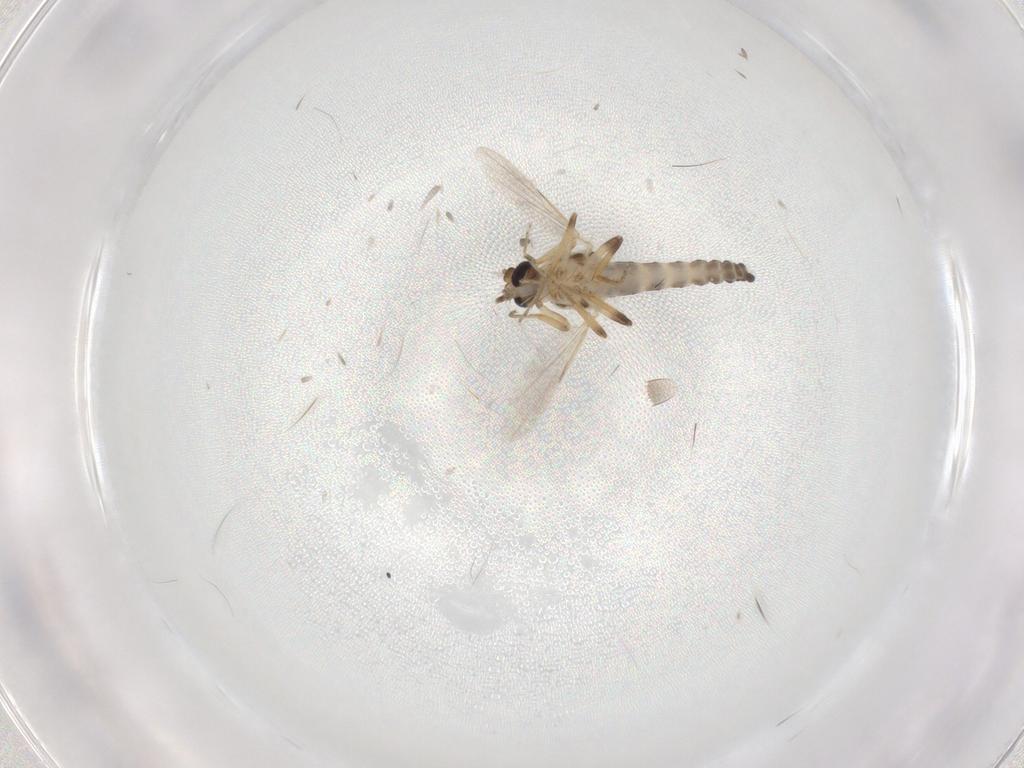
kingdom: Animalia
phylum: Arthropoda
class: Insecta
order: Diptera
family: Ceratopogonidae
